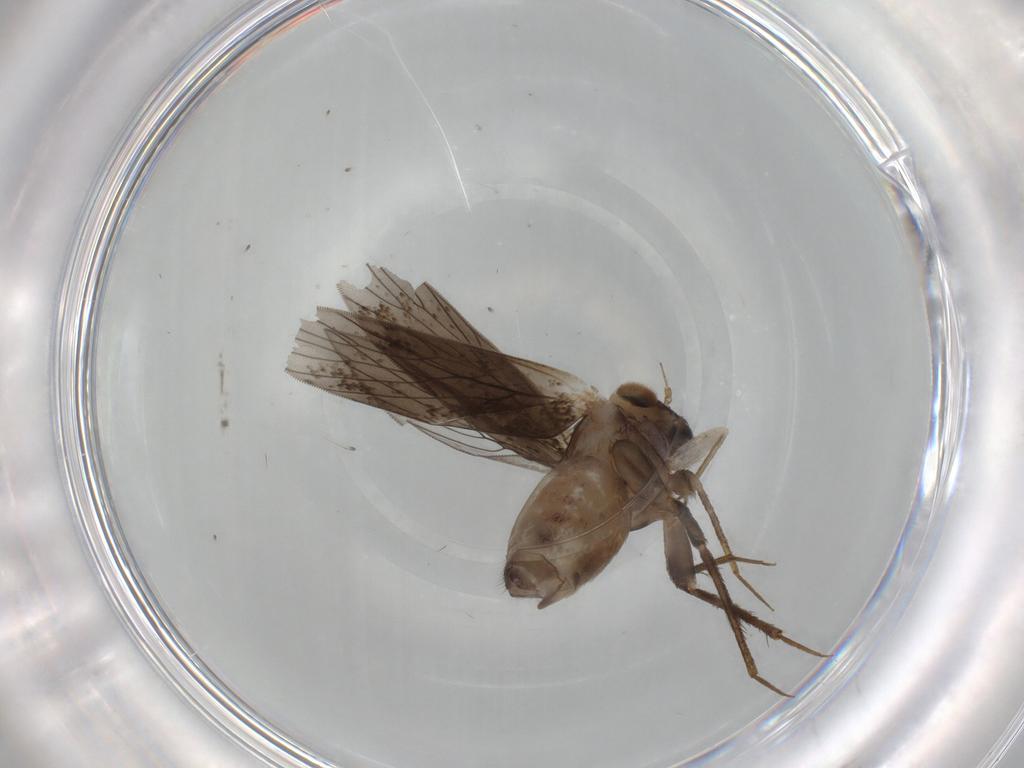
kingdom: Animalia
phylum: Arthropoda
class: Insecta
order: Psocodea
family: Lepidopsocidae
